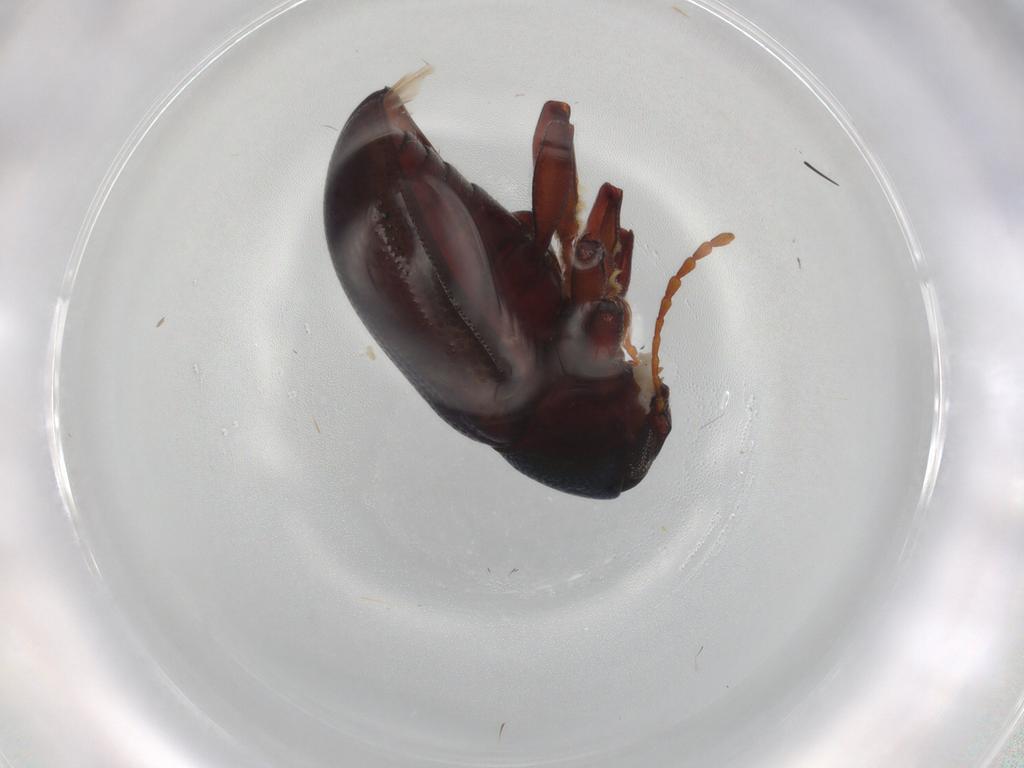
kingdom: Animalia
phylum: Arthropoda
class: Insecta
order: Coleoptera
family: Chrysomelidae
